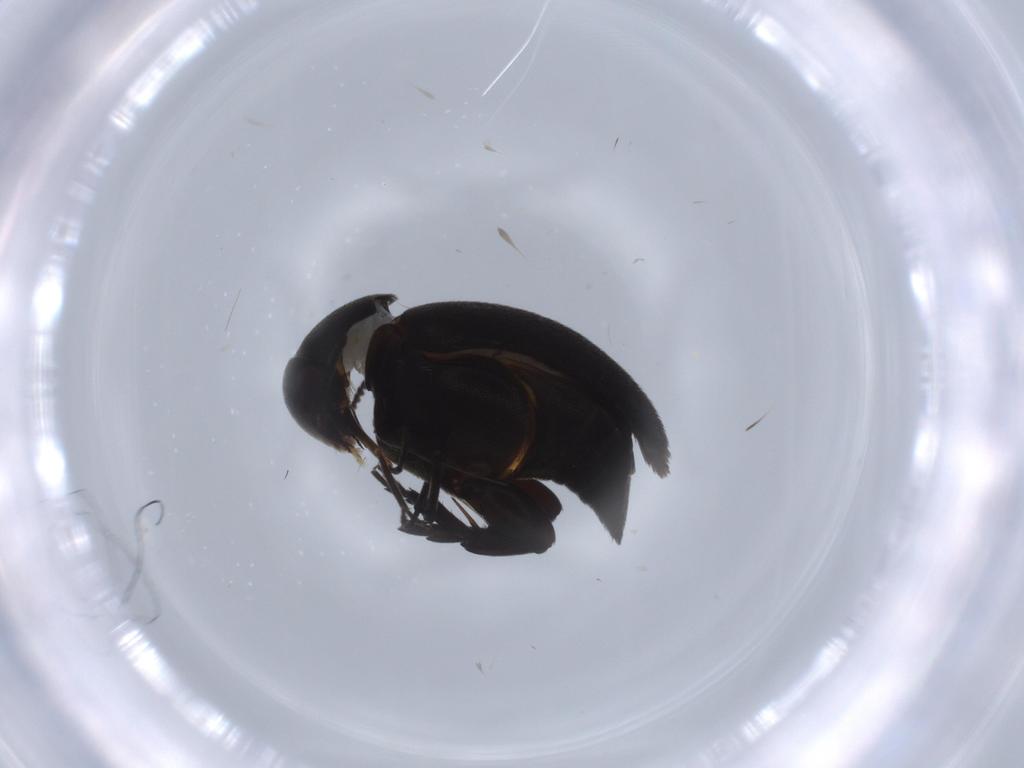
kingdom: Animalia
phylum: Arthropoda
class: Insecta
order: Coleoptera
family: Mordellidae
